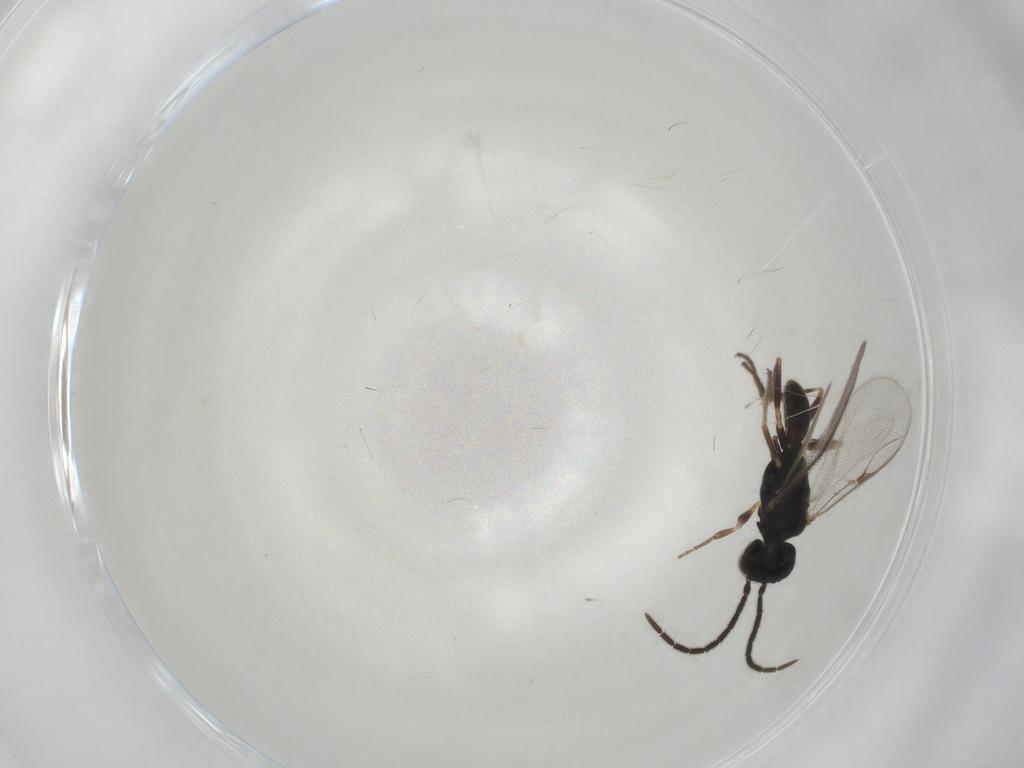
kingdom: Animalia
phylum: Arthropoda
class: Insecta
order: Hymenoptera
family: Dryinidae
